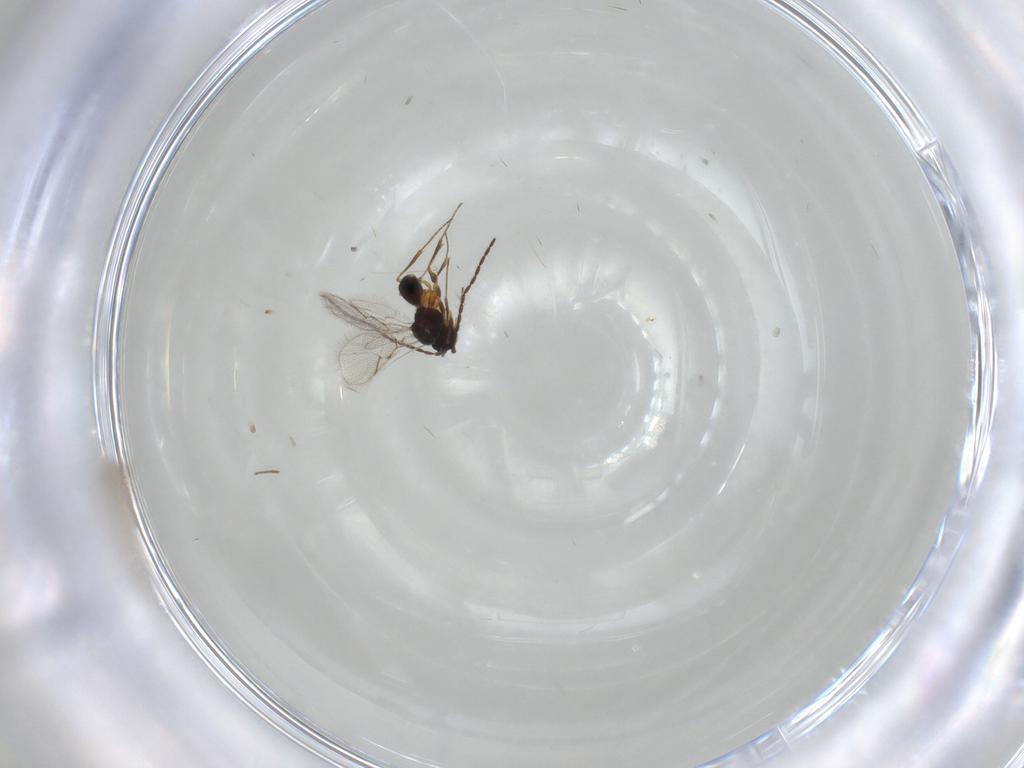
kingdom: Animalia
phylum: Arthropoda
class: Insecta
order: Hymenoptera
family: Figitidae
